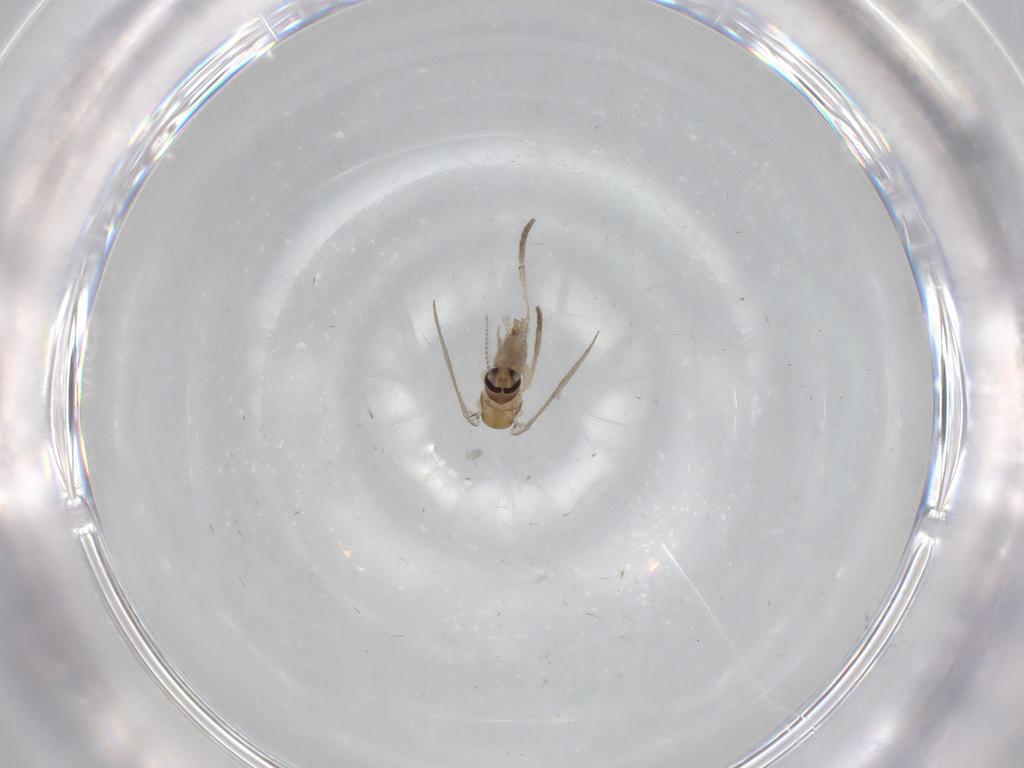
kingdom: Animalia
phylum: Arthropoda
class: Insecta
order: Diptera
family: Psychodidae
